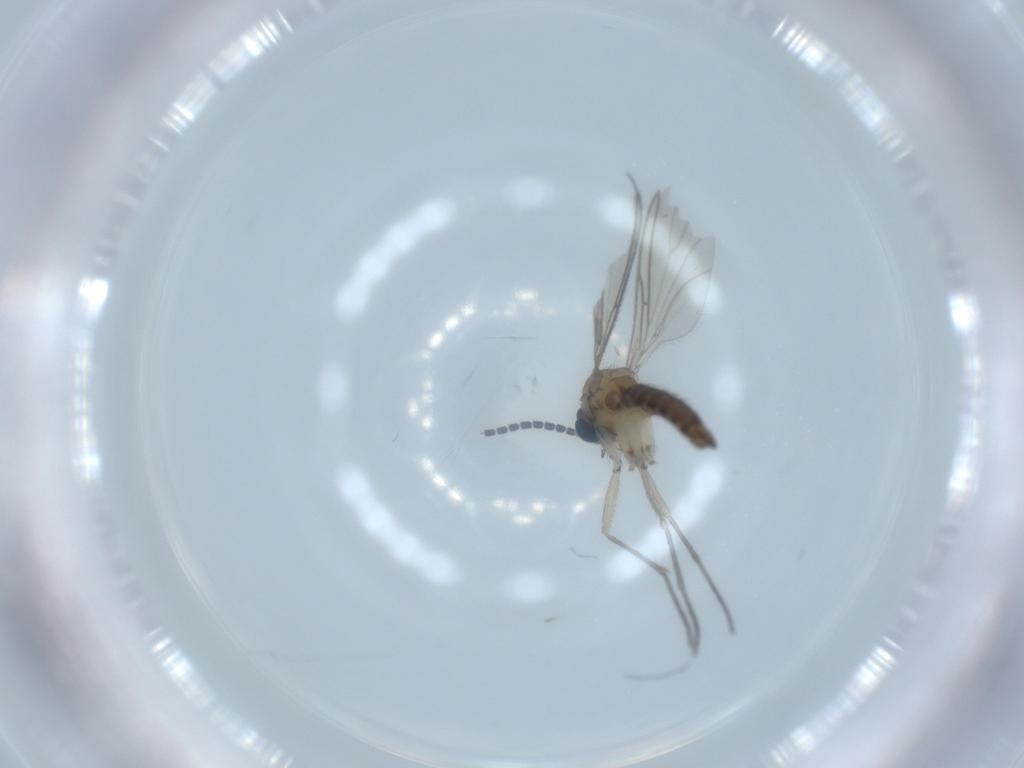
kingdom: Animalia
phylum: Arthropoda
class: Insecta
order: Diptera
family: Sciaridae
